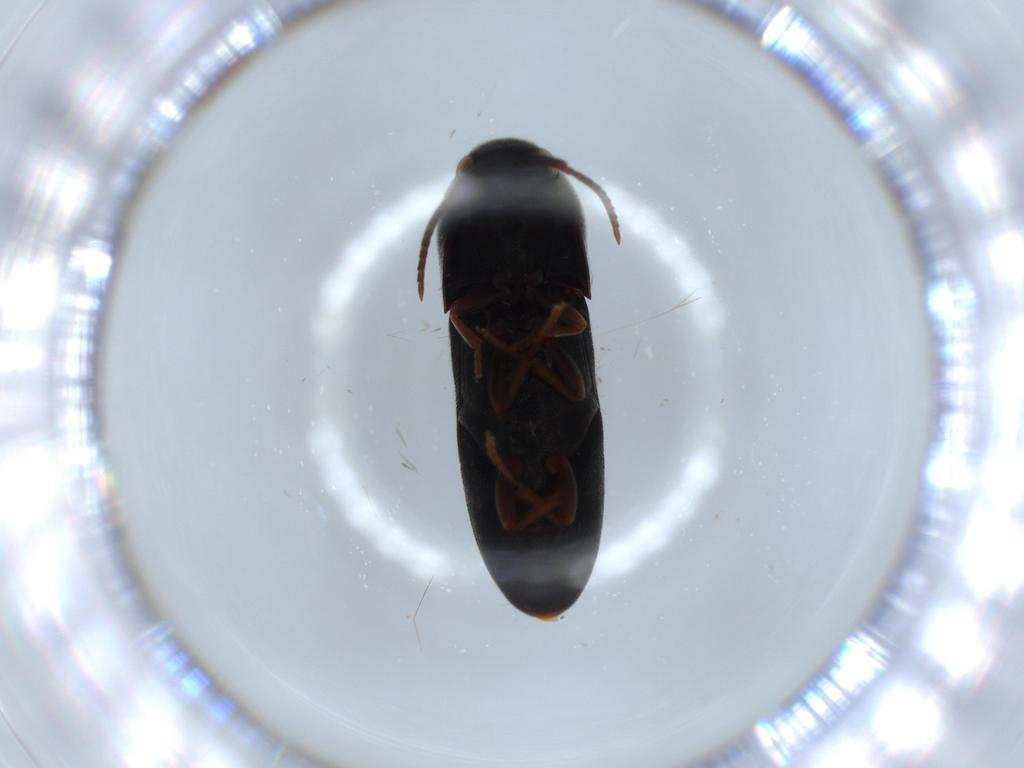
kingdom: Animalia
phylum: Arthropoda
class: Insecta
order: Coleoptera
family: Eucnemidae
